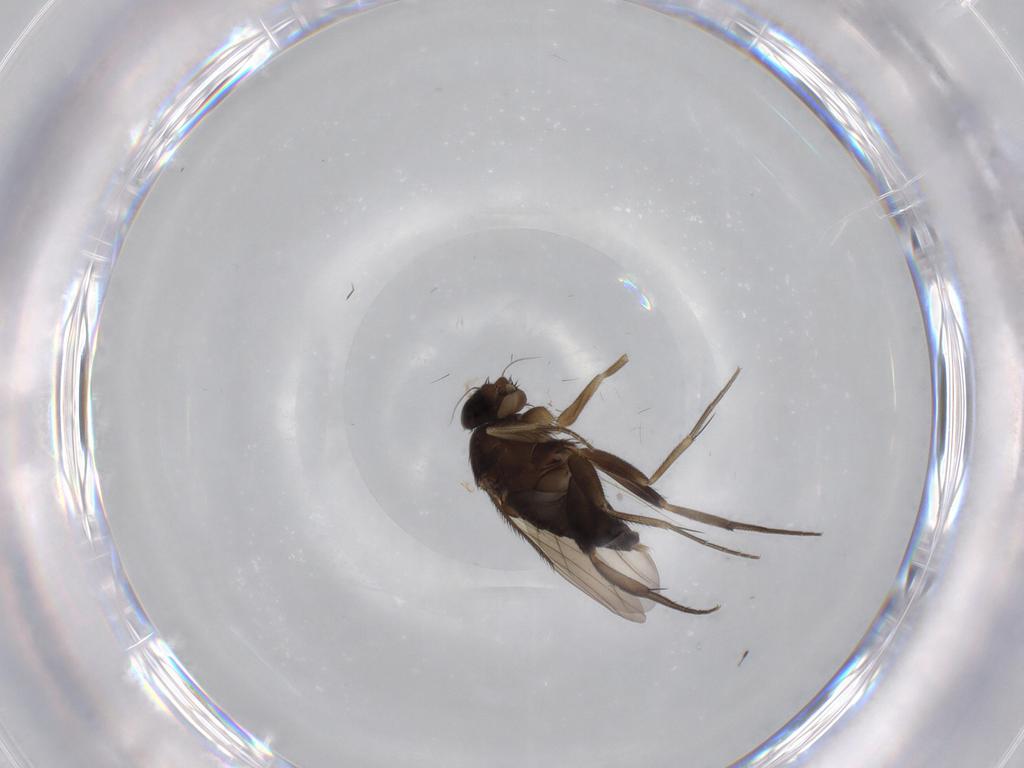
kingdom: Animalia
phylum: Arthropoda
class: Insecta
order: Diptera
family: Phoridae
